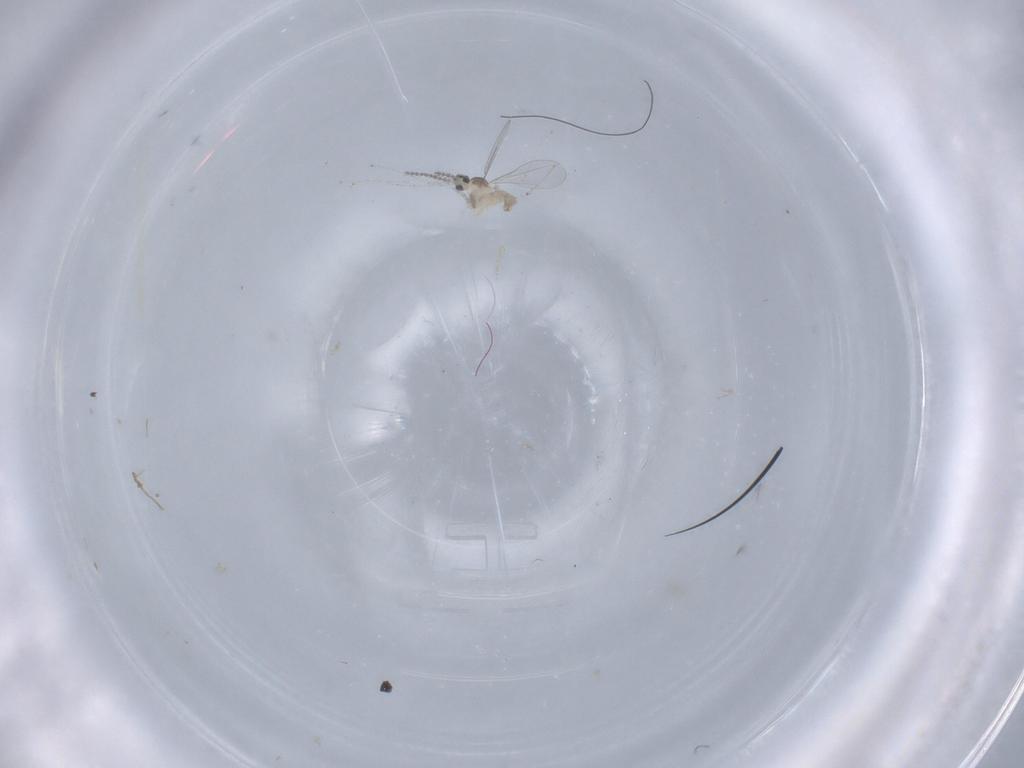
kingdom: Animalia
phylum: Arthropoda
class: Insecta
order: Diptera
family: Cecidomyiidae
